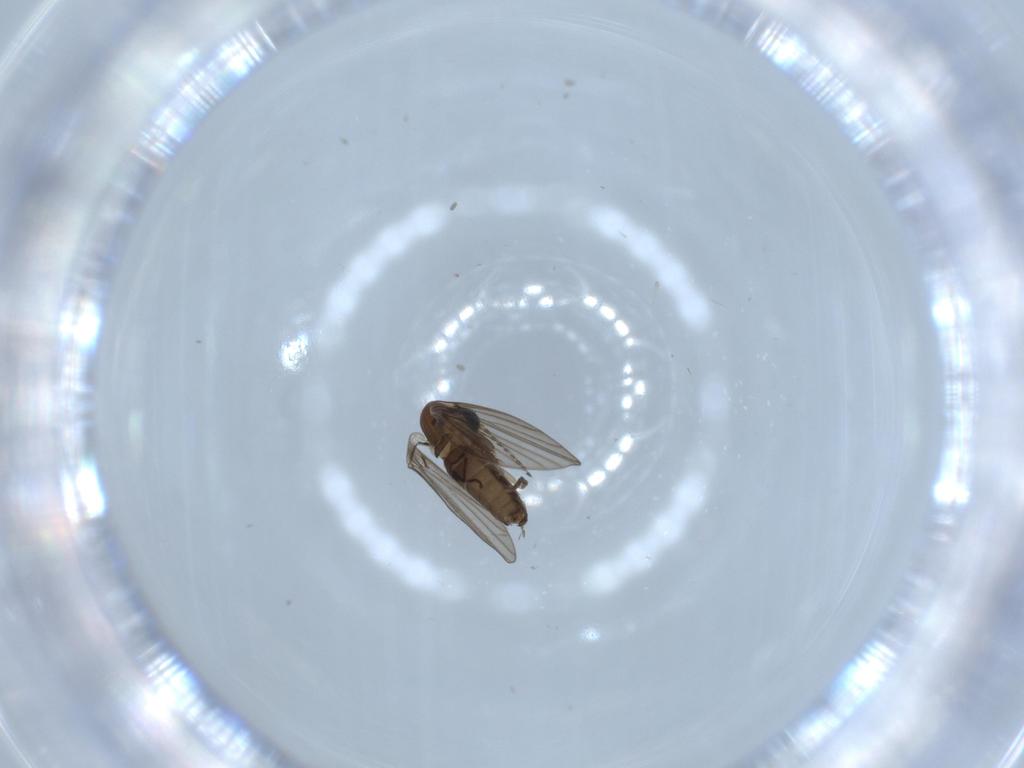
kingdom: Animalia
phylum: Arthropoda
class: Insecta
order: Diptera
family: Psychodidae
